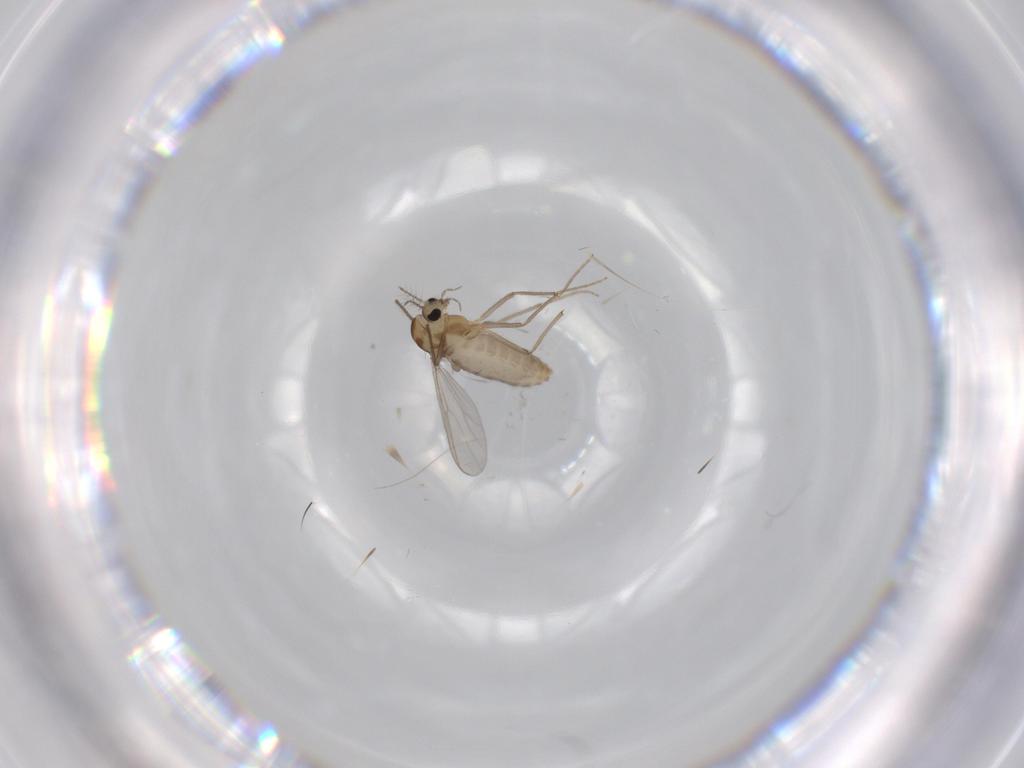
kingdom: Animalia
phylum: Arthropoda
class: Insecta
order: Diptera
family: Chironomidae
